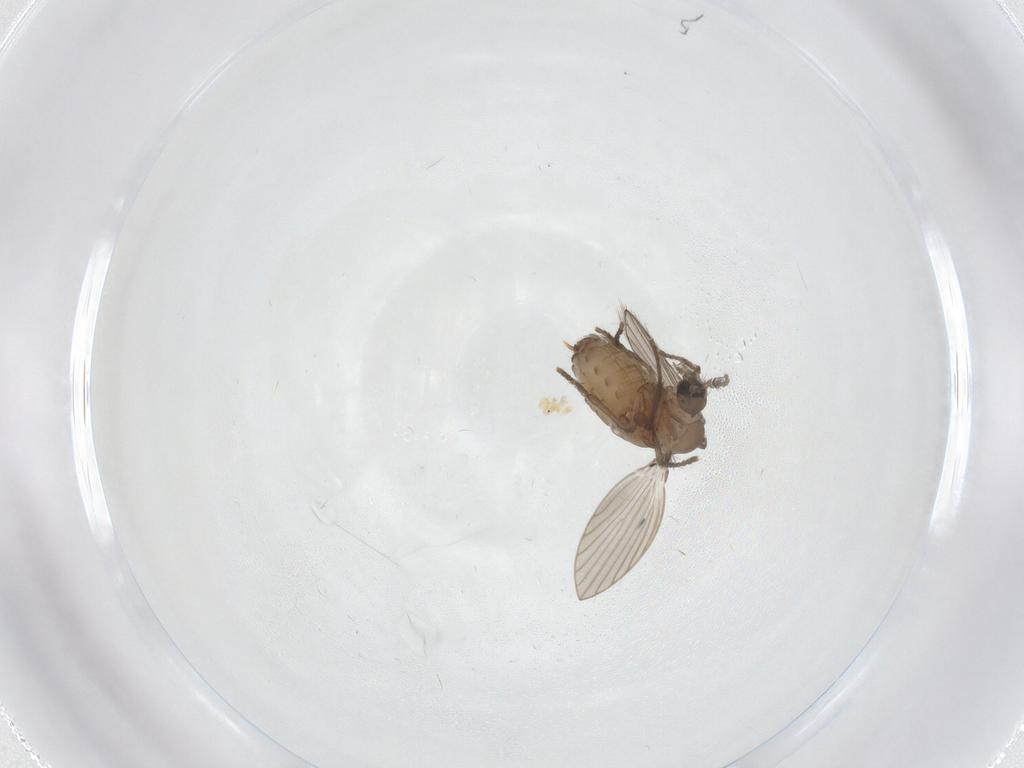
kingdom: Animalia
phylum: Arthropoda
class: Insecta
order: Diptera
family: Psychodidae
